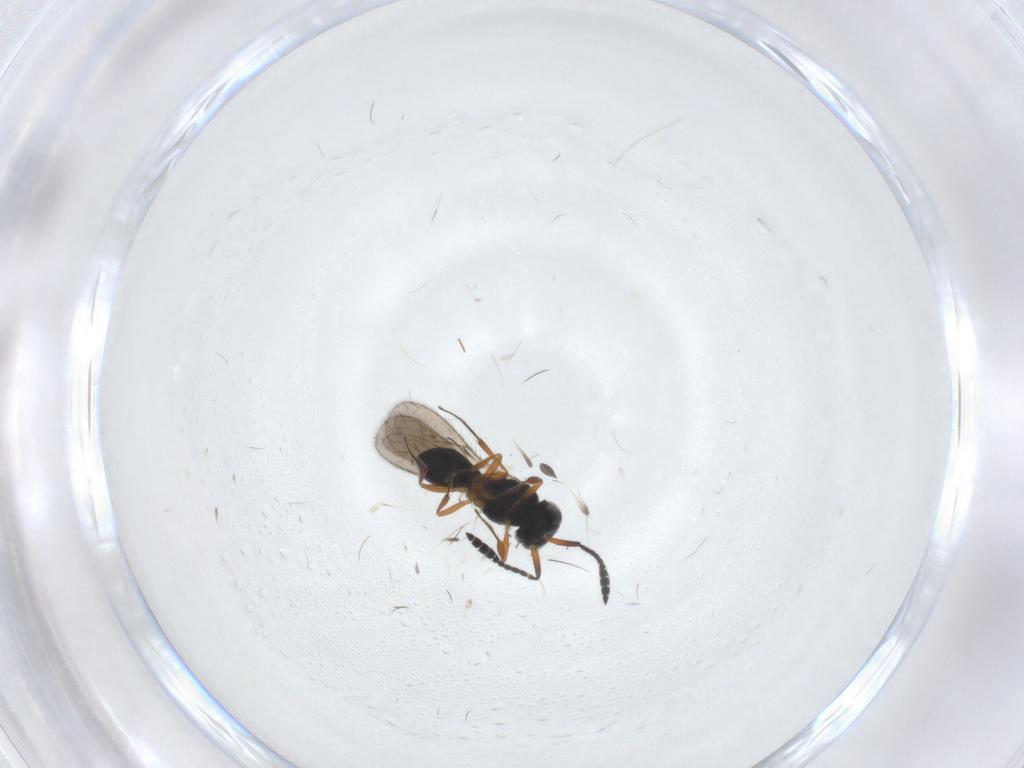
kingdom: Animalia
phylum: Arthropoda
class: Insecta
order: Hymenoptera
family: Scelionidae
